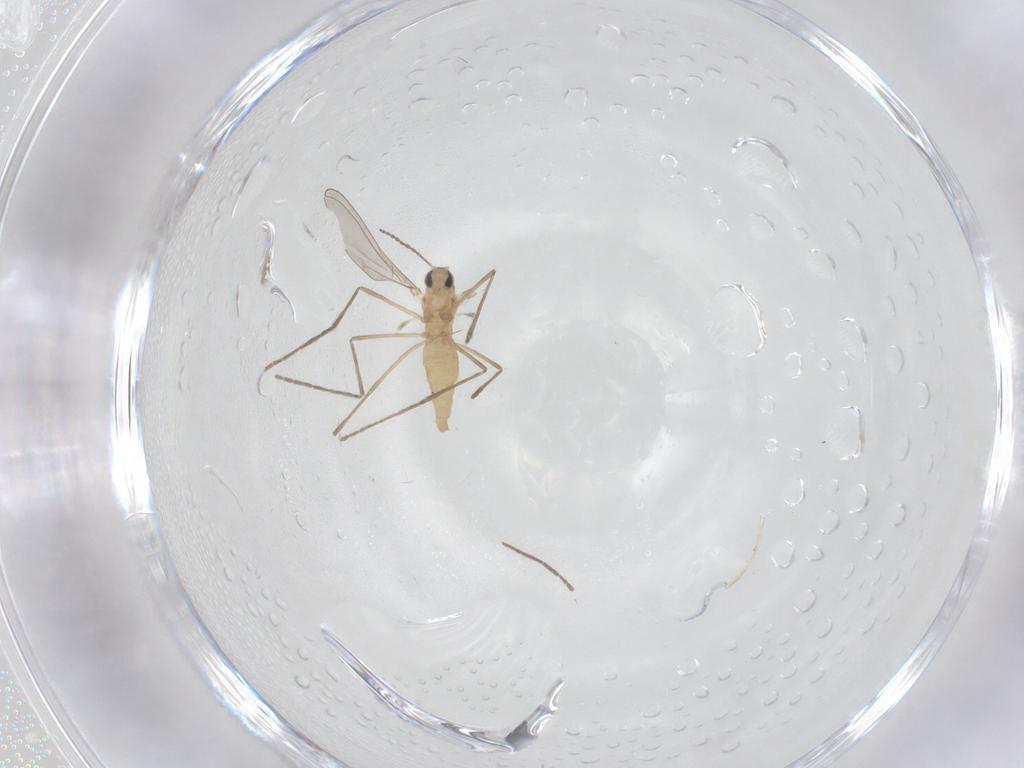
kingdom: Animalia
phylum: Arthropoda
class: Insecta
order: Diptera
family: Cecidomyiidae
